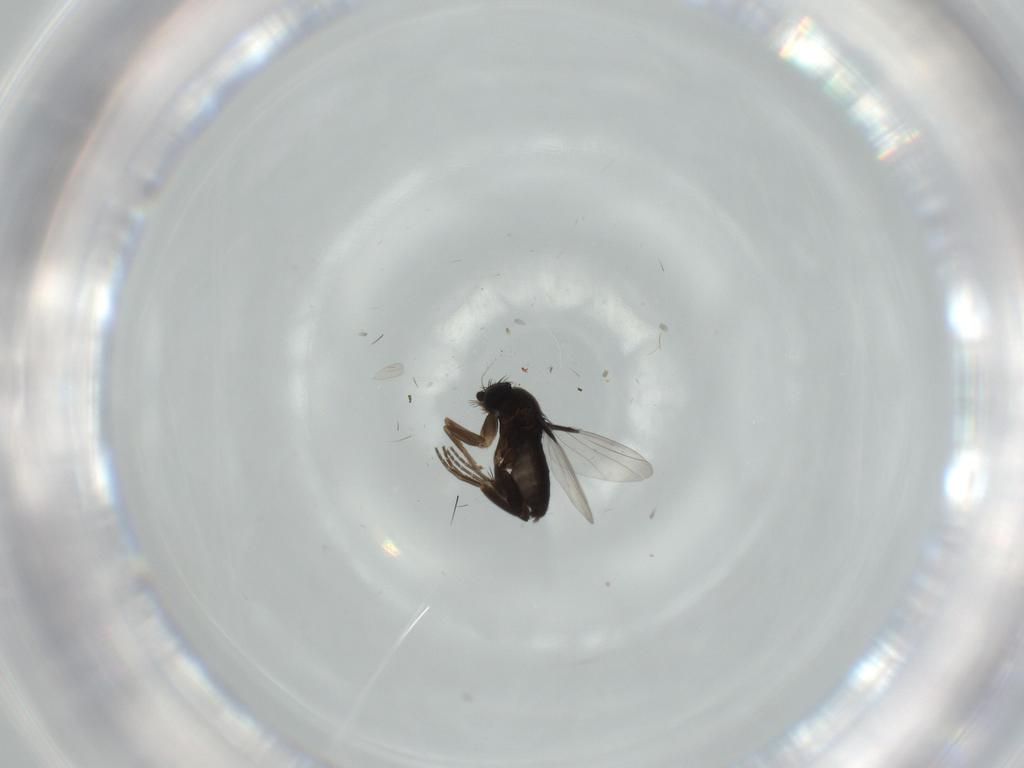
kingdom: Animalia
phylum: Arthropoda
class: Insecta
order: Diptera
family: Phoridae
